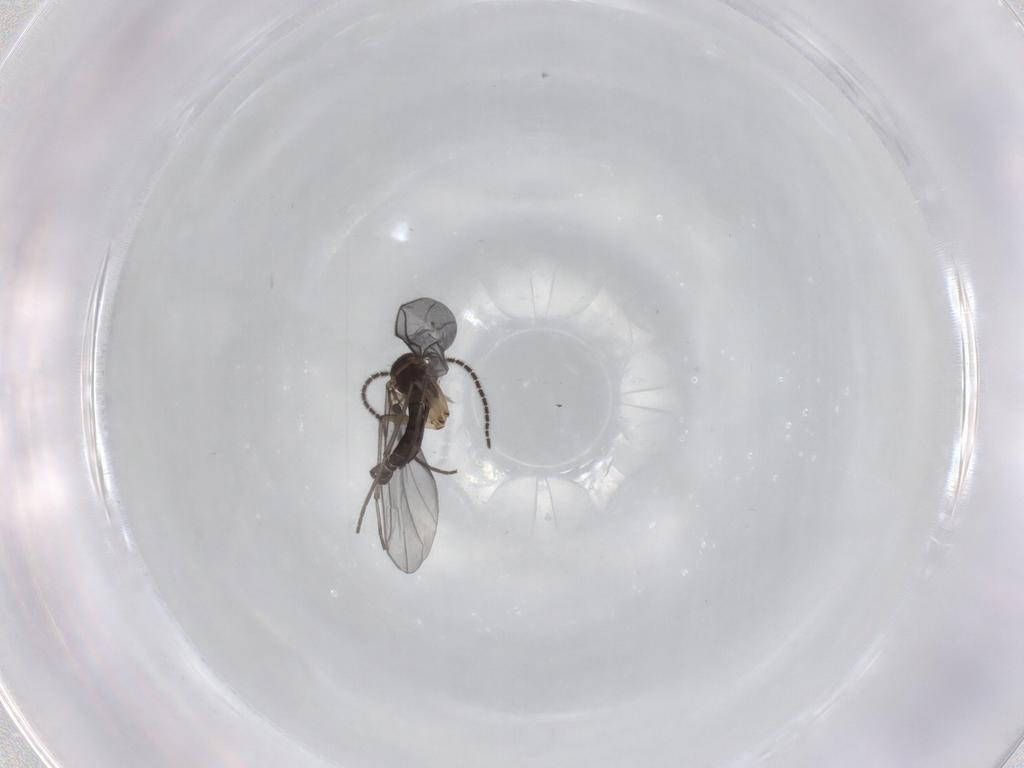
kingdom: Animalia
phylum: Arthropoda
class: Insecta
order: Diptera
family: Sciaridae
